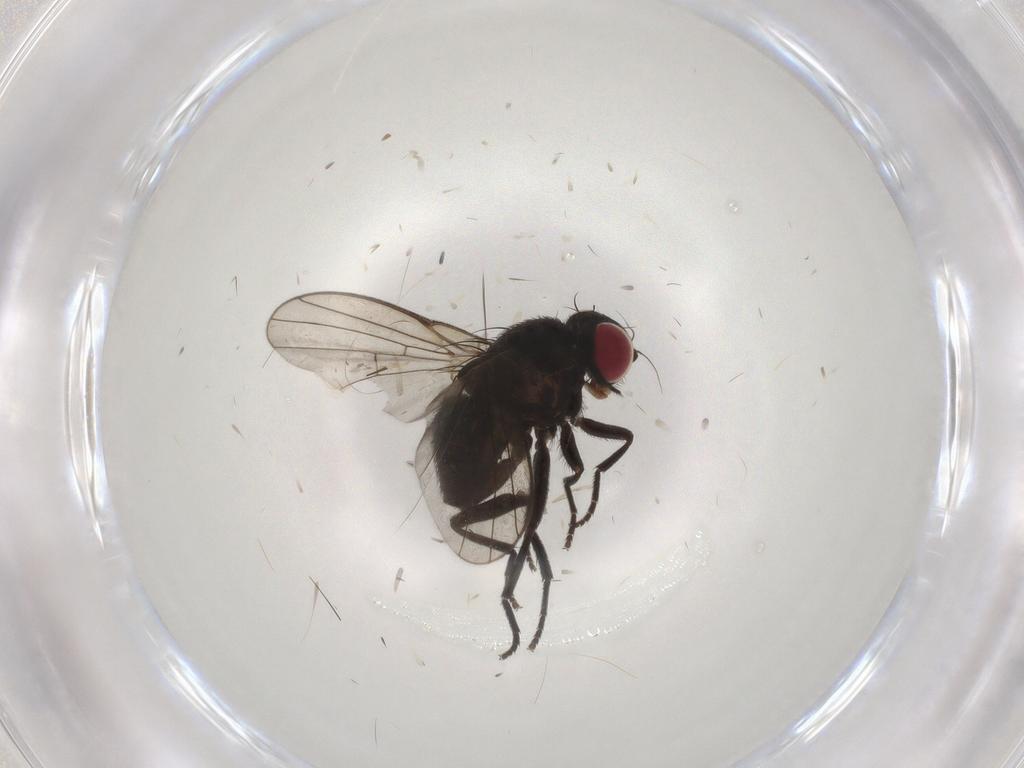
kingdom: Animalia
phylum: Arthropoda
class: Insecta
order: Diptera
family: Agromyzidae
